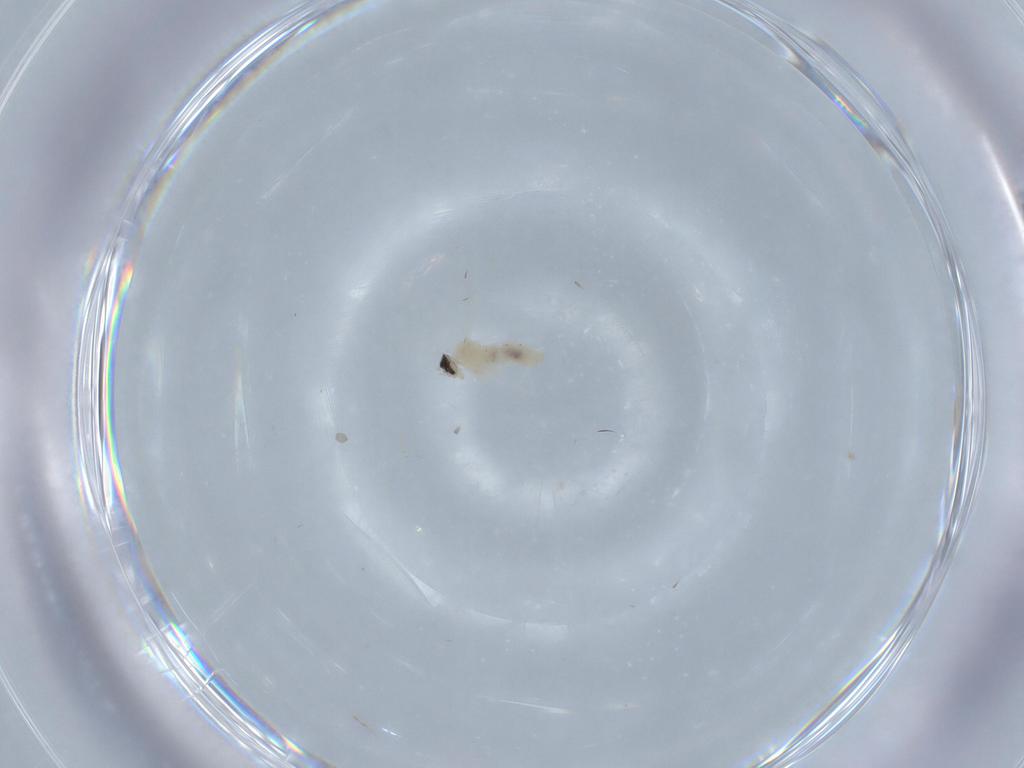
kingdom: Animalia
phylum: Arthropoda
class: Insecta
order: Diptera
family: Cecidomyiidae
